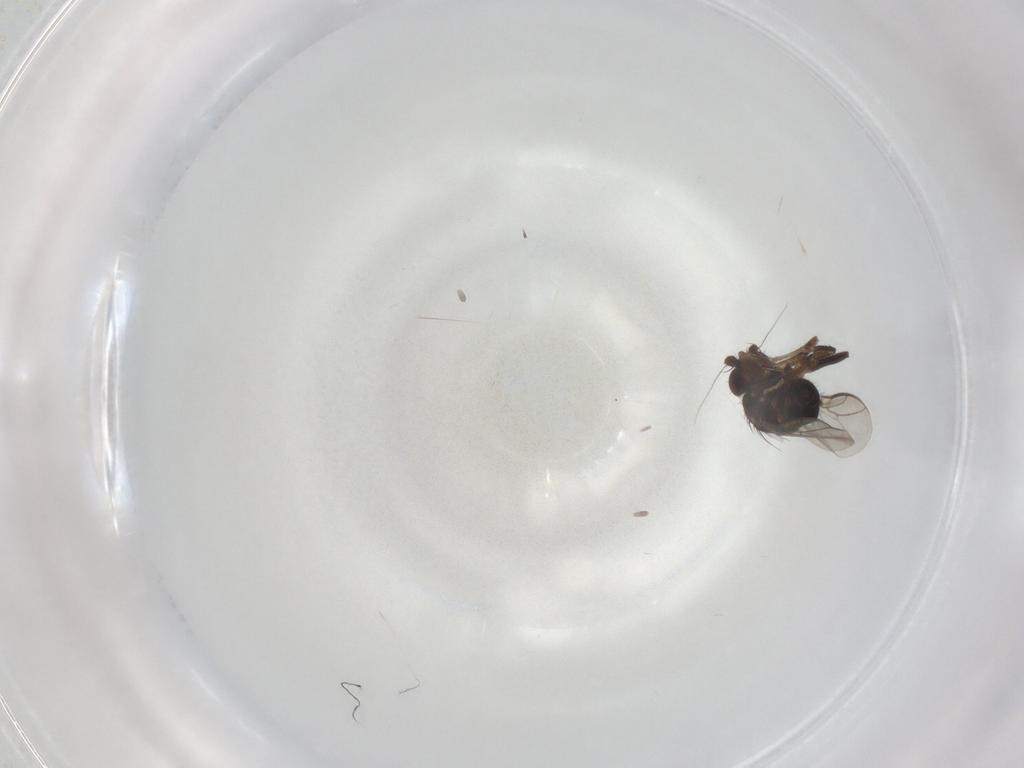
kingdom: Animalia
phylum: Arthropoda
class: Insecta
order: Diptera
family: Sphaeroceridae
